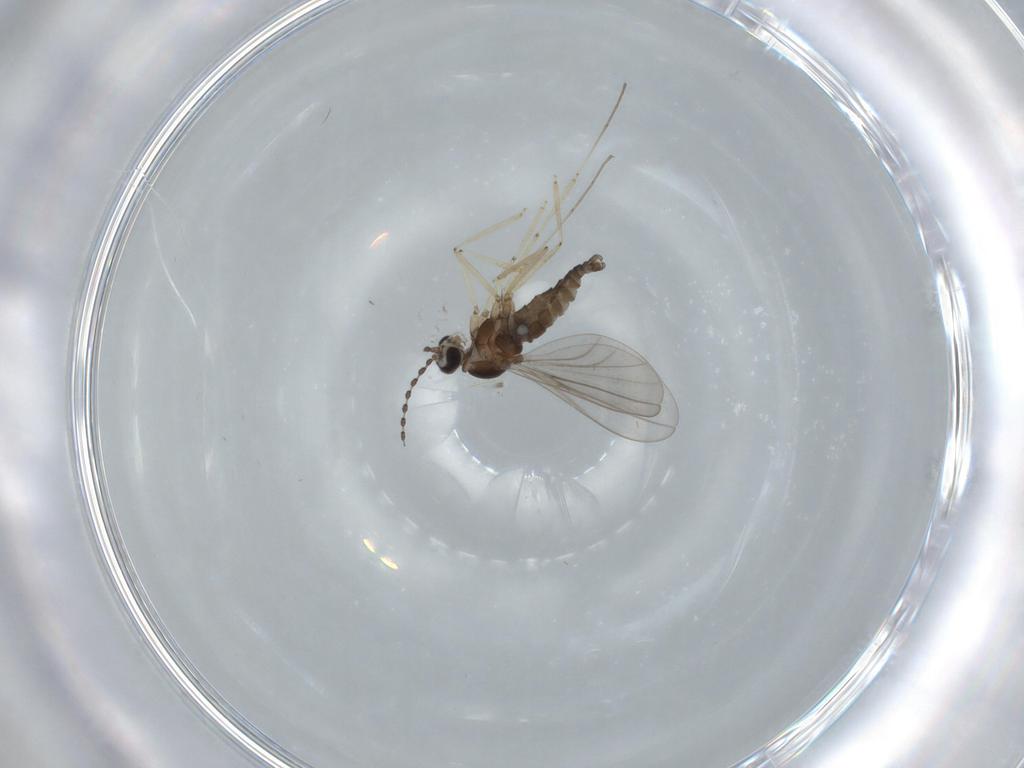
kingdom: Animalia
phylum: Arthropoda
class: Insecta
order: Diptera
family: Cecidomyiidae
